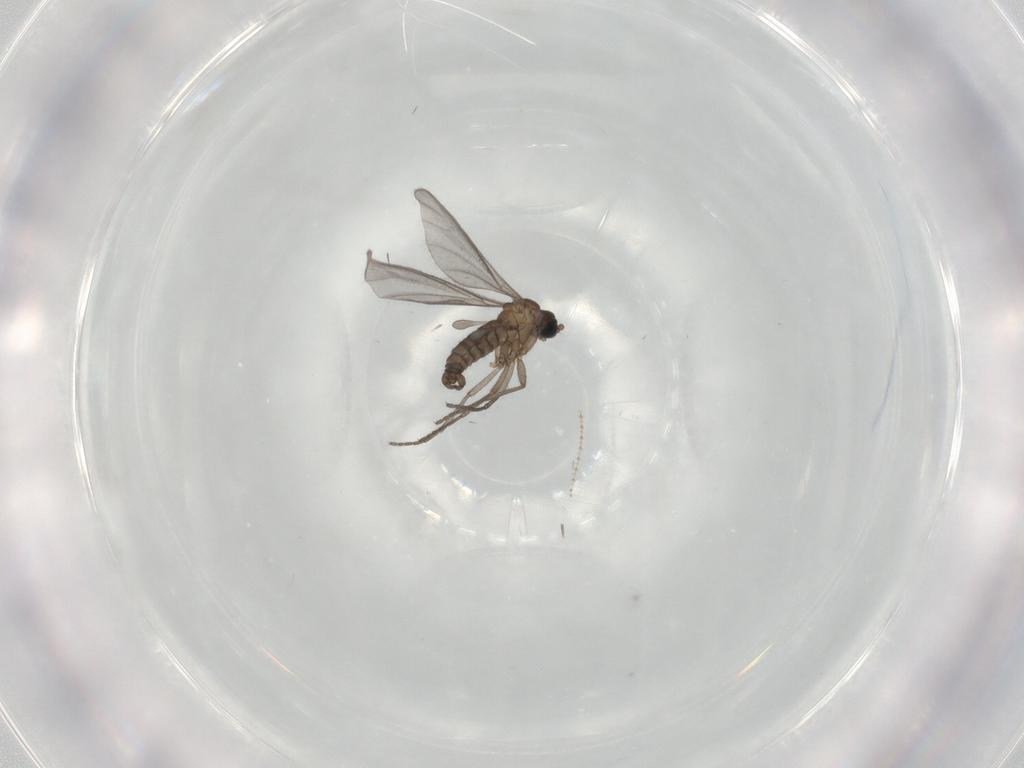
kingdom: Animalia
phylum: Arthropoda
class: Insecta
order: Diptera
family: Sciaridae
